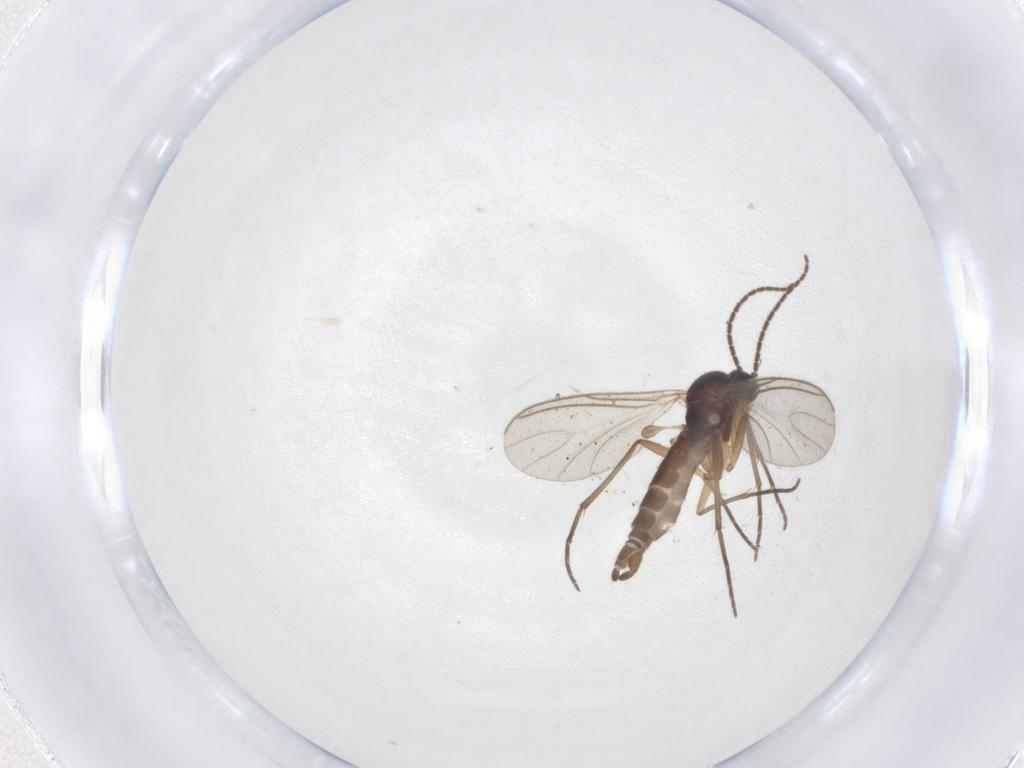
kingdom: Animalia
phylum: Arthropoda
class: Insecta
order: Diptera
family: Sciaridae
